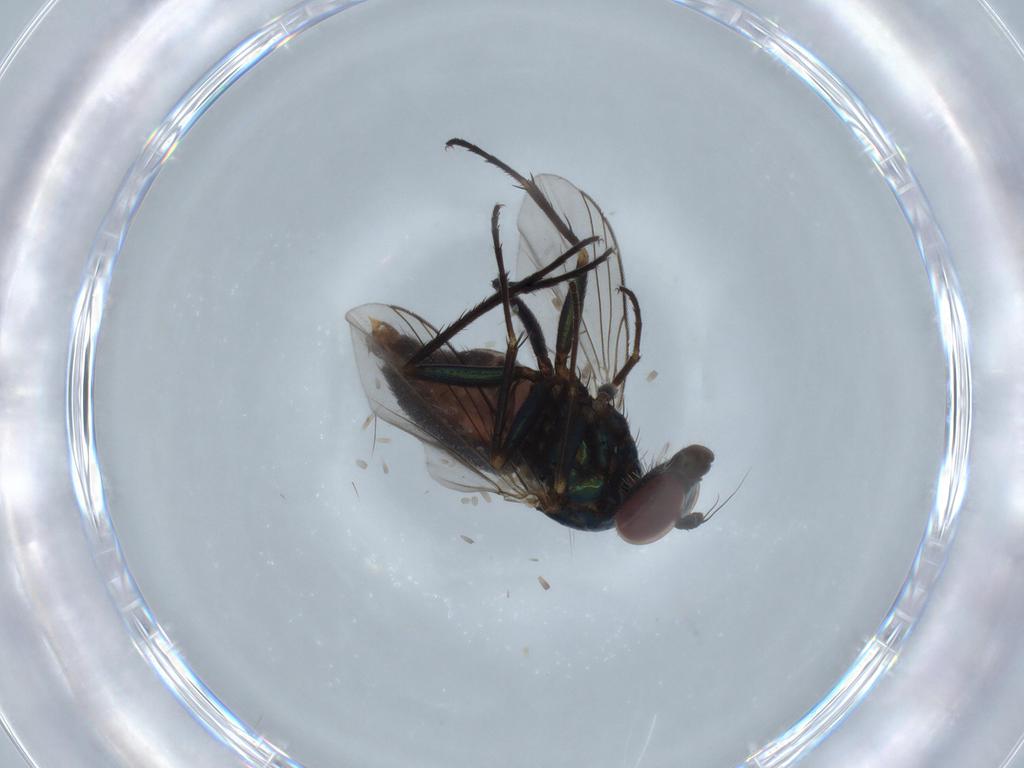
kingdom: Animalia
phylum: Arthropoda
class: Insecta
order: Diptera
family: Dolichopodidae
